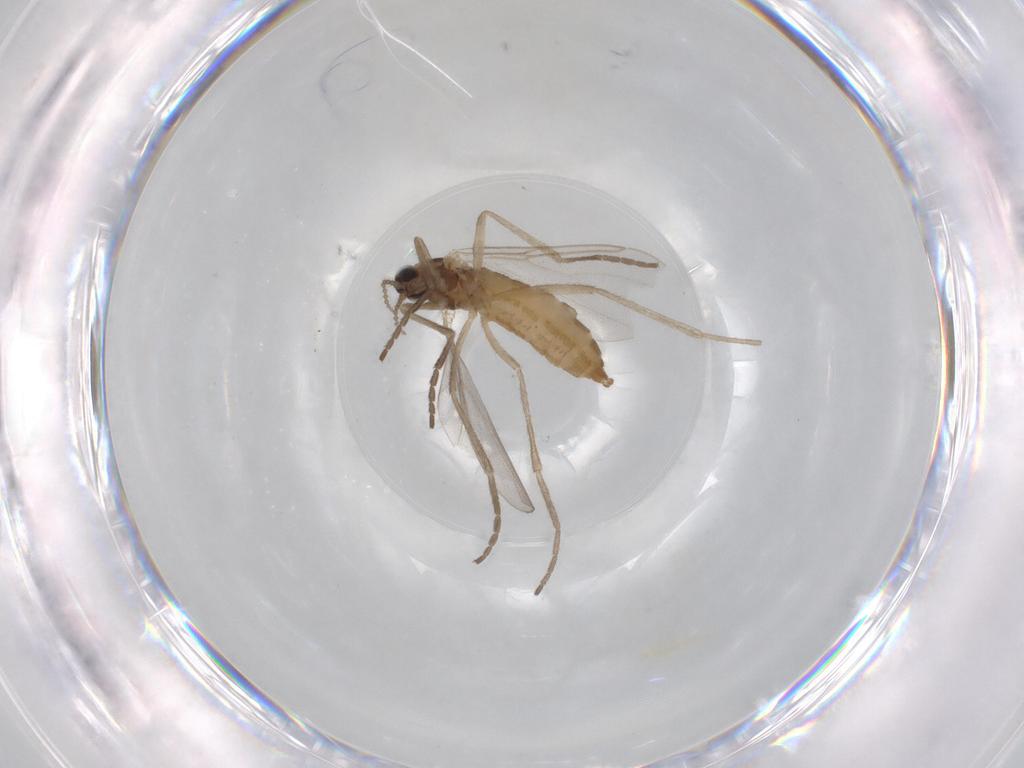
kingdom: Animalia
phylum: Arthropoda
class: Insecta
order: Diptera
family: Cecidomyiidae
